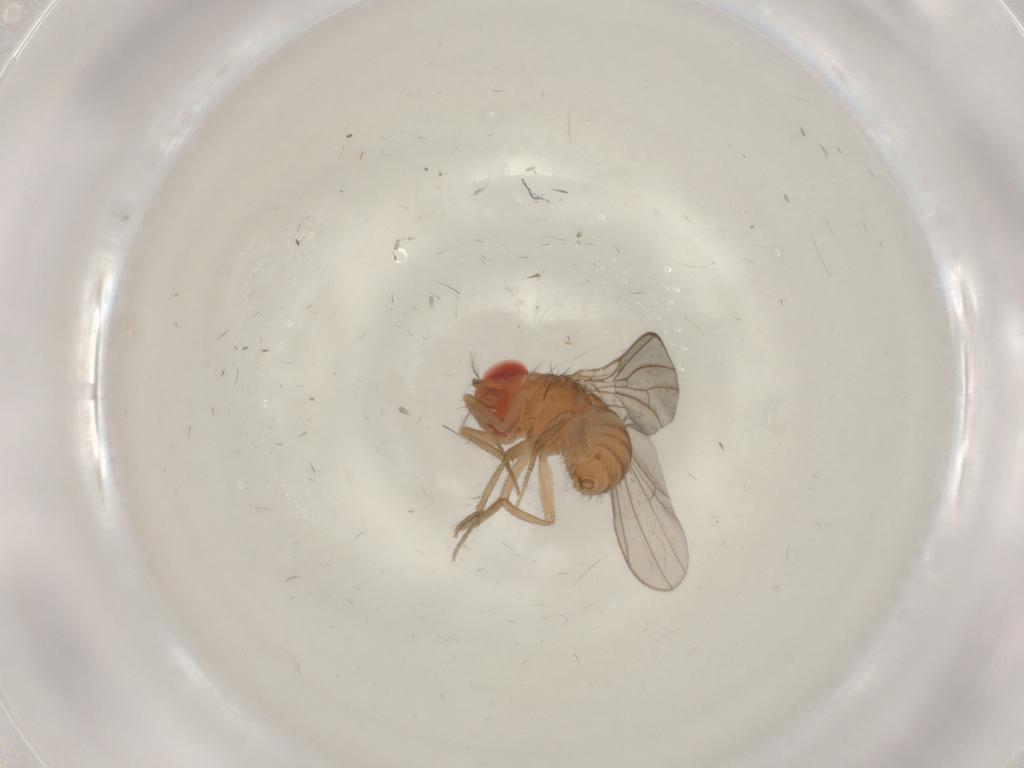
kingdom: Animalia
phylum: Arthropoda
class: Insecta
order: Diptera
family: Drosophilidae
